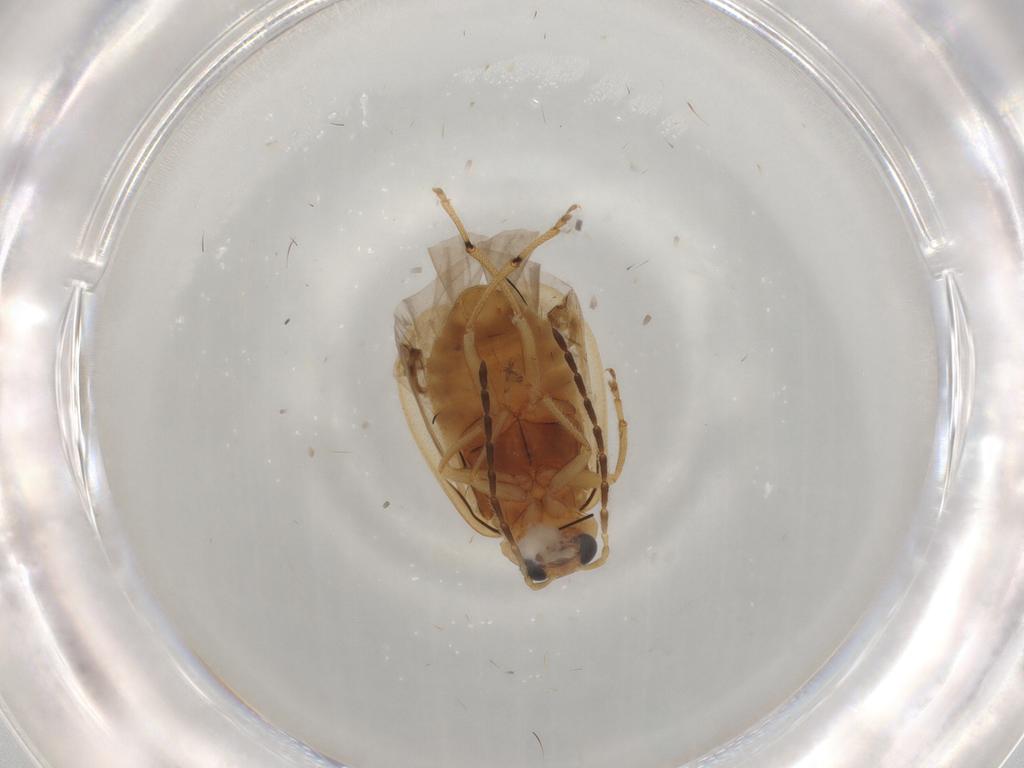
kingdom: Animalia
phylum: Arthropoda
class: Insecta
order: Coleoptera
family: Chrysomelidae
